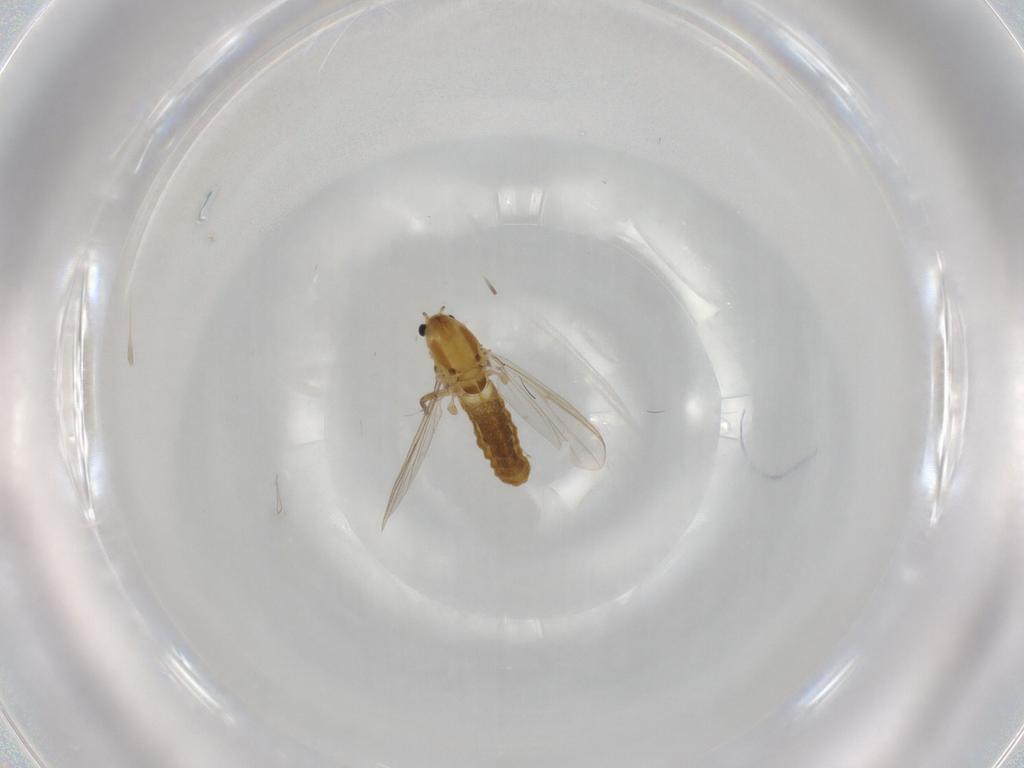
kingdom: Animalia
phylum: Arthropoda
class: Insecta
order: Diptera
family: Chironomidae
